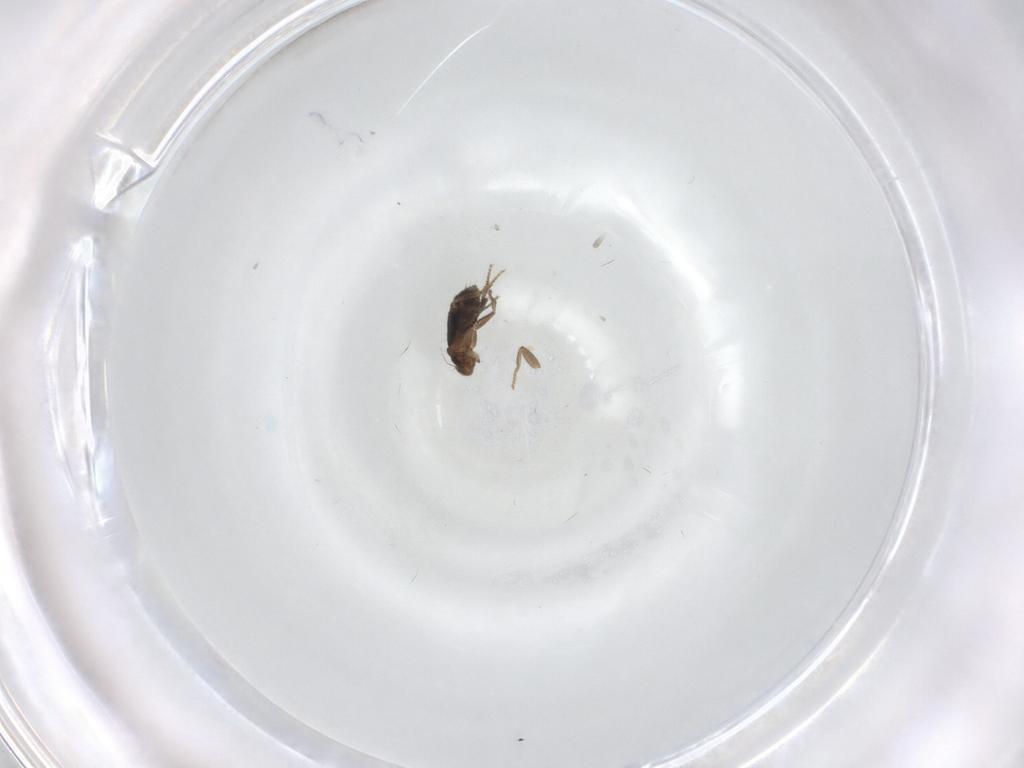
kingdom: Animalia
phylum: Arthropoda
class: Insecta
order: Diptera
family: Phoridae
